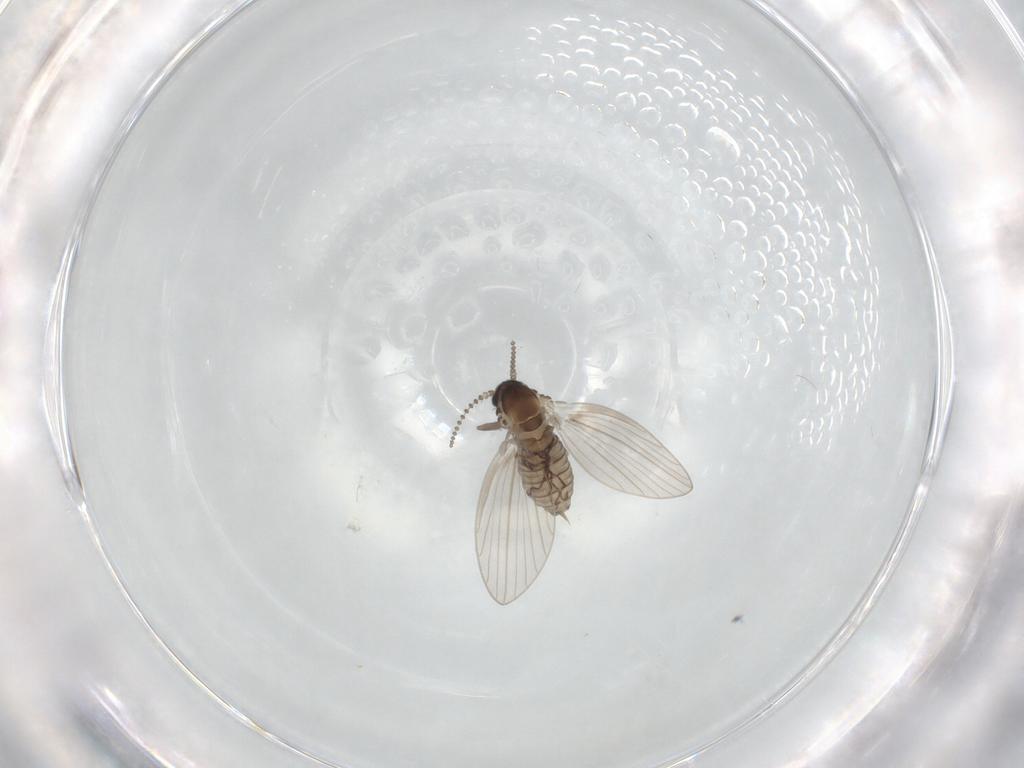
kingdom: Animalia
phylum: Arthropoda
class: Insecta
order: Diptera
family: Psychodidae
